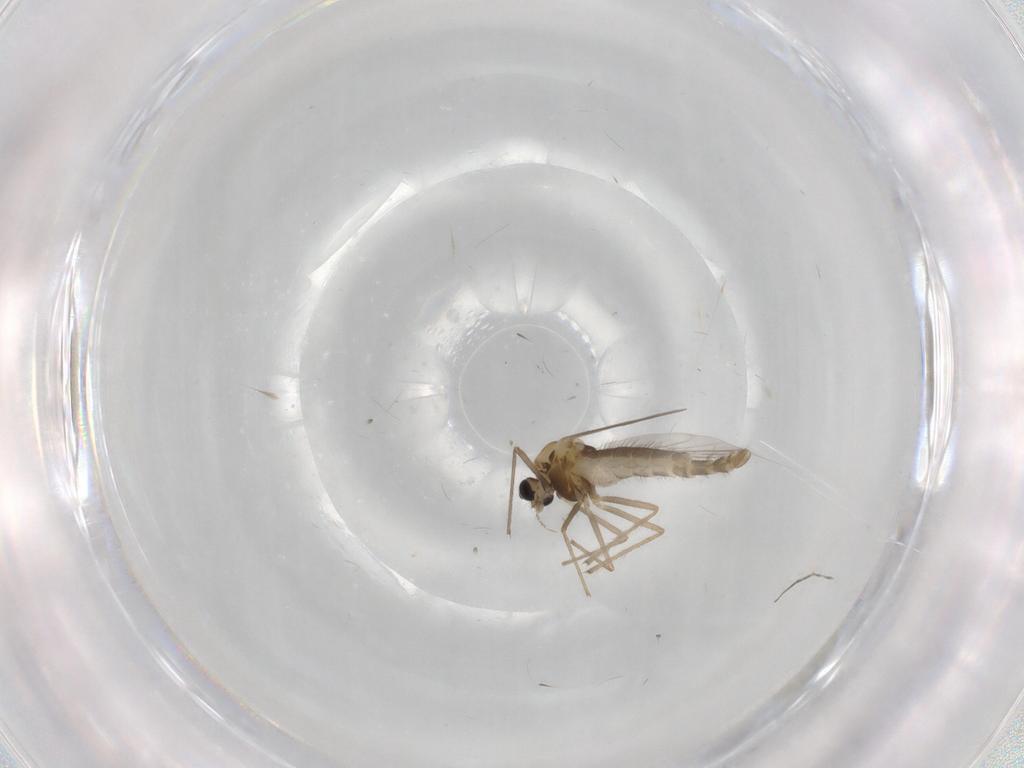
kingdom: Animalia
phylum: Arthropoda
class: Insecta
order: Diptera
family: Chironomidae
